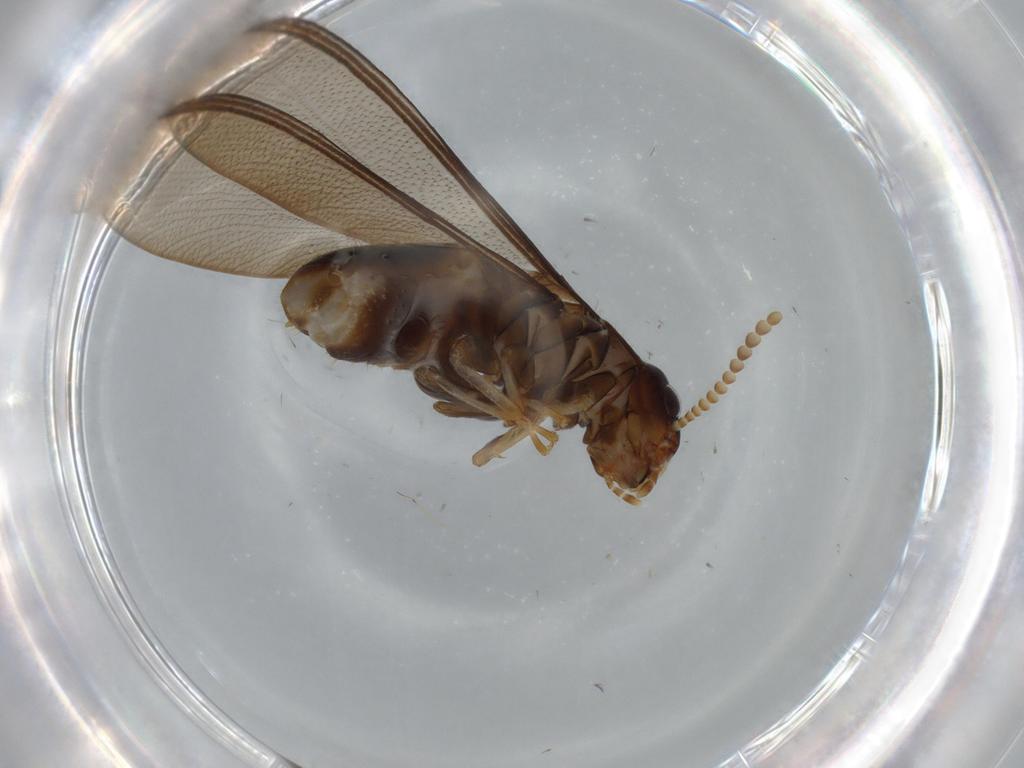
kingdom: Animalia
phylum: Arthropoda
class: Insecta
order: Blattodea
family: Kalotermitidae
